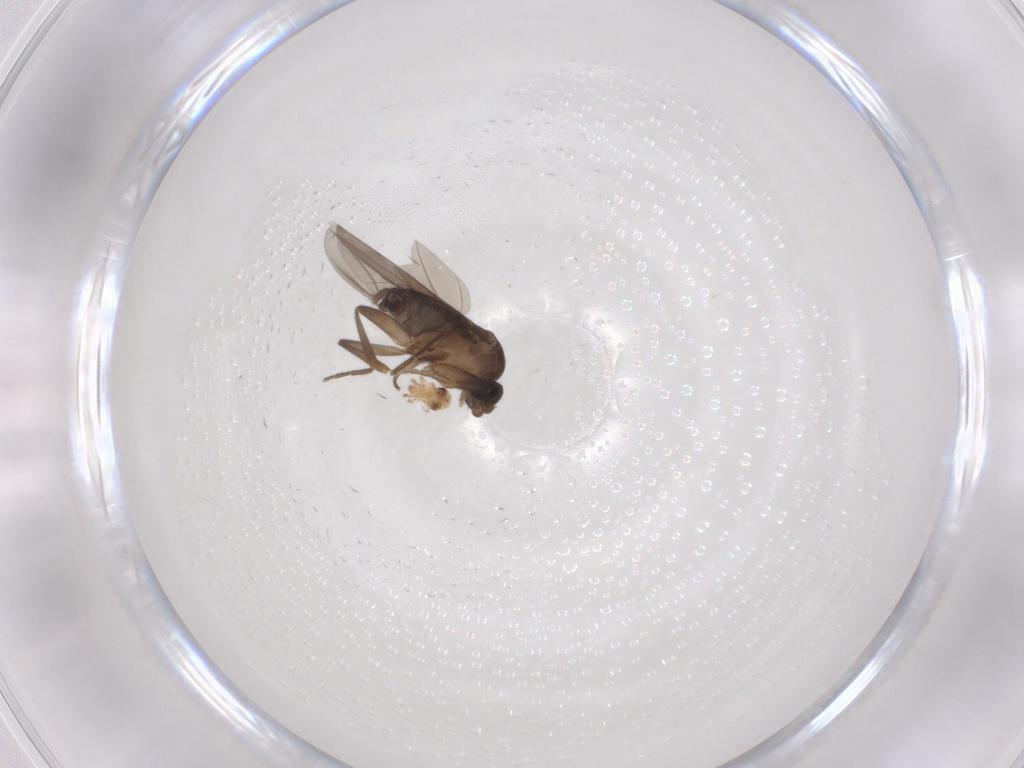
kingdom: Animalia
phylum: Arthropoda
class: Insecta
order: Diptera
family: Phoridae
